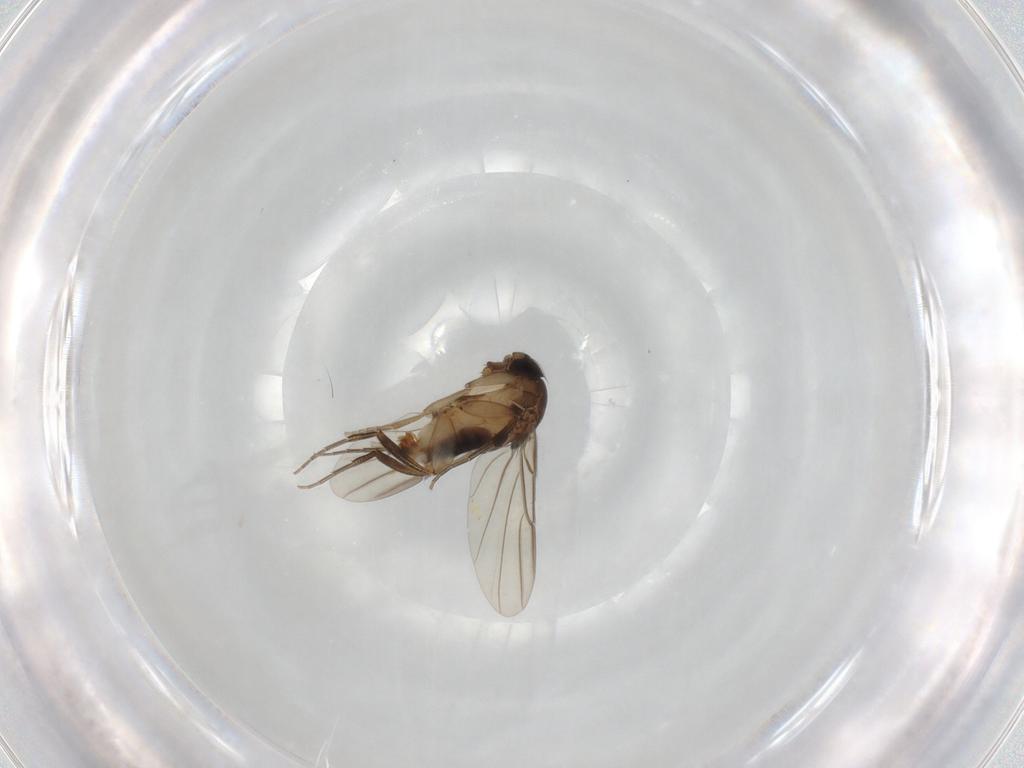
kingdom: Animalia
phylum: Arthropoda
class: Insecta
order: Diptera
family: Phoridae
